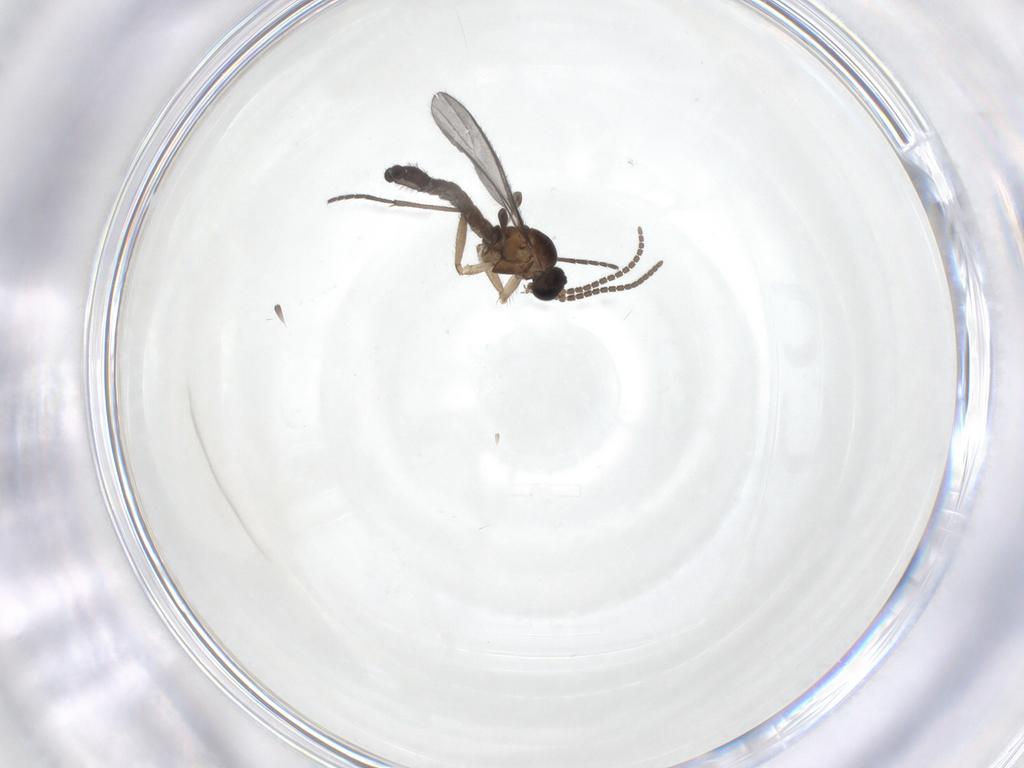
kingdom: Animalia
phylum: Arthropoda
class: Insecta
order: Diptera
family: Sciaridae
